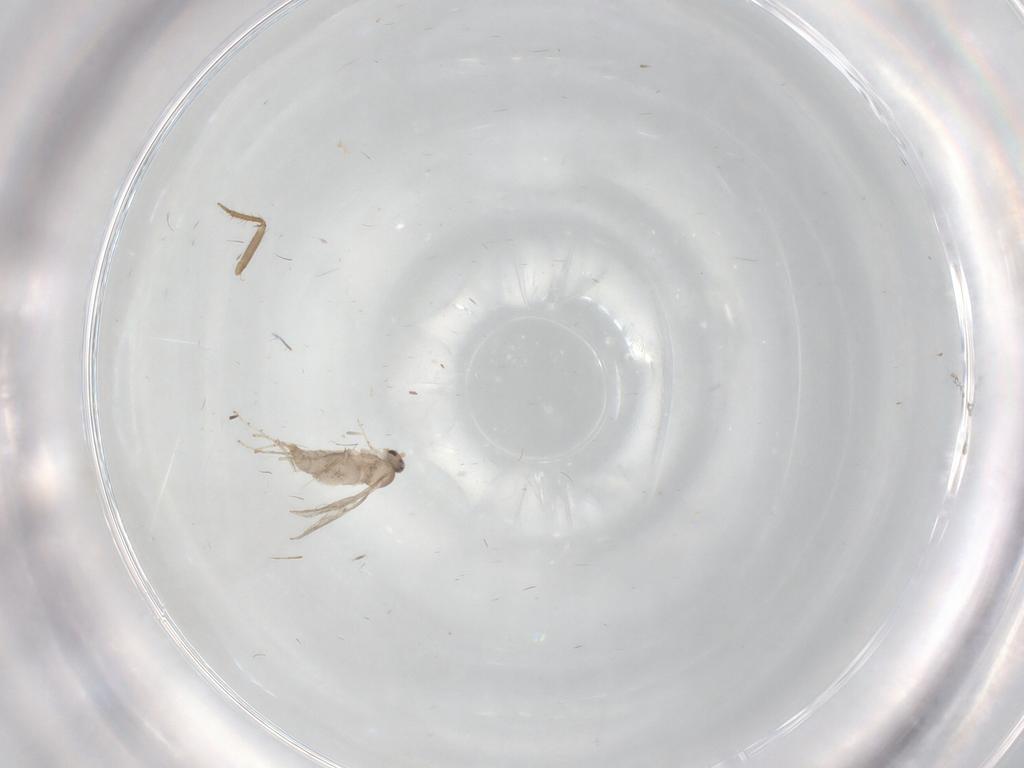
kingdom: Animalia
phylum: Arthropoda
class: Insecta
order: Diptera
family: Cecidomyiidae
